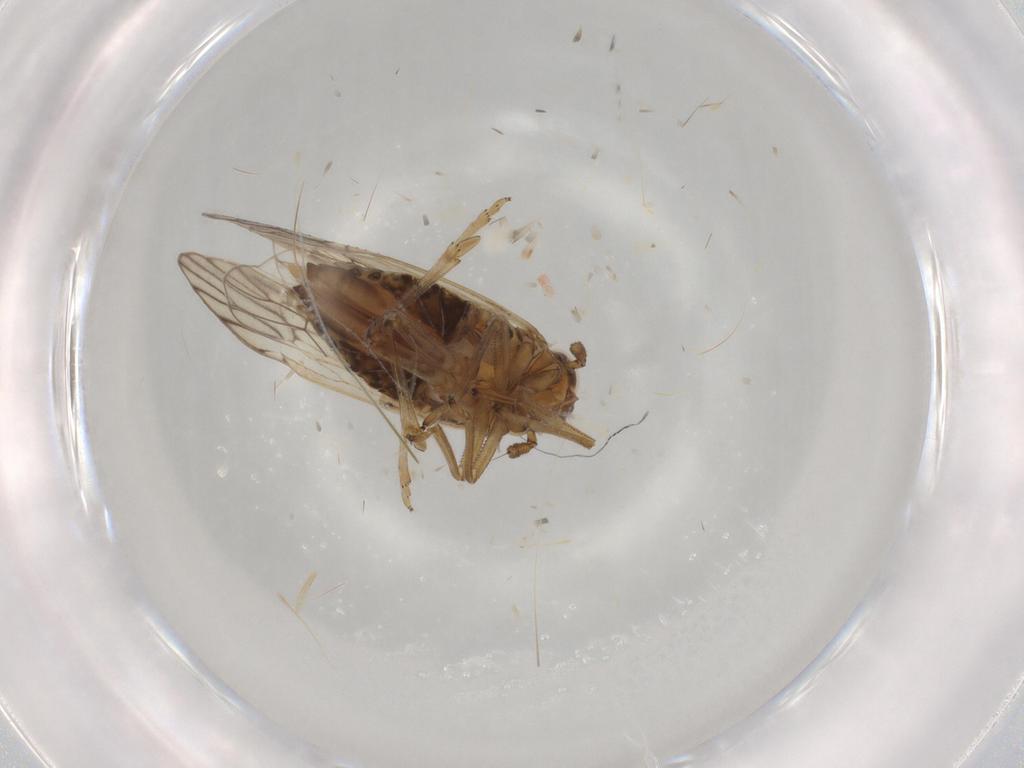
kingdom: Animalia
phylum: Arthropoda
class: Insecta
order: Hemiptera
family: Delphacidae
